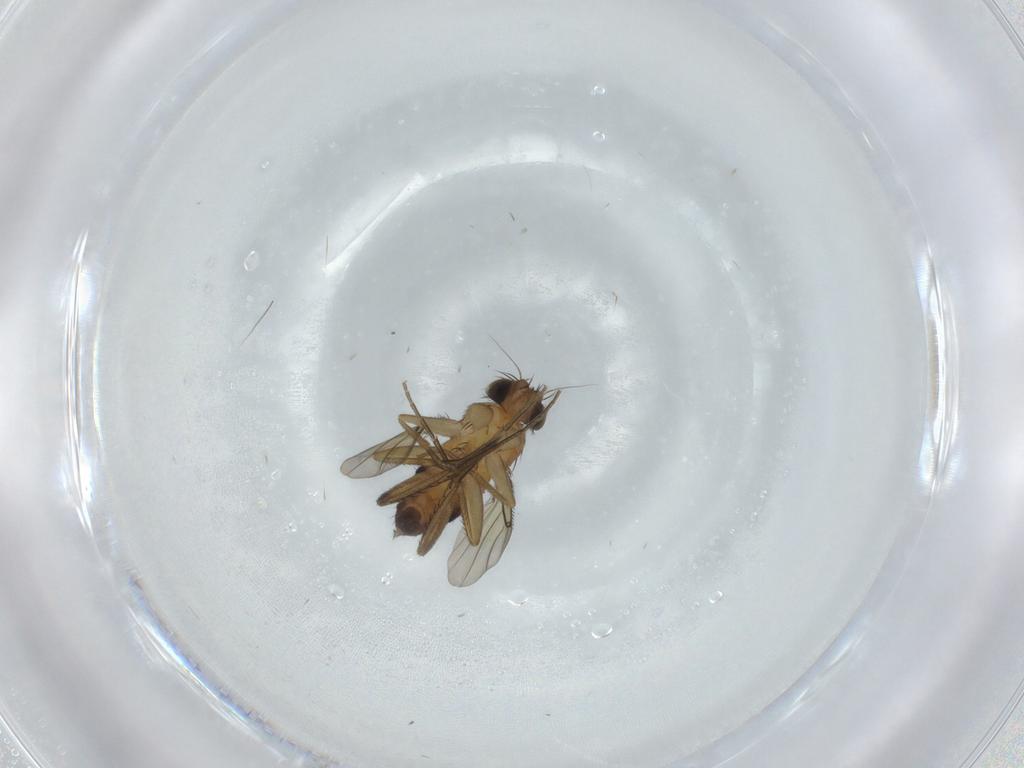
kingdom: Animalia
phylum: Arthropoda
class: Insecta
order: Diptera
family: Phoridae
